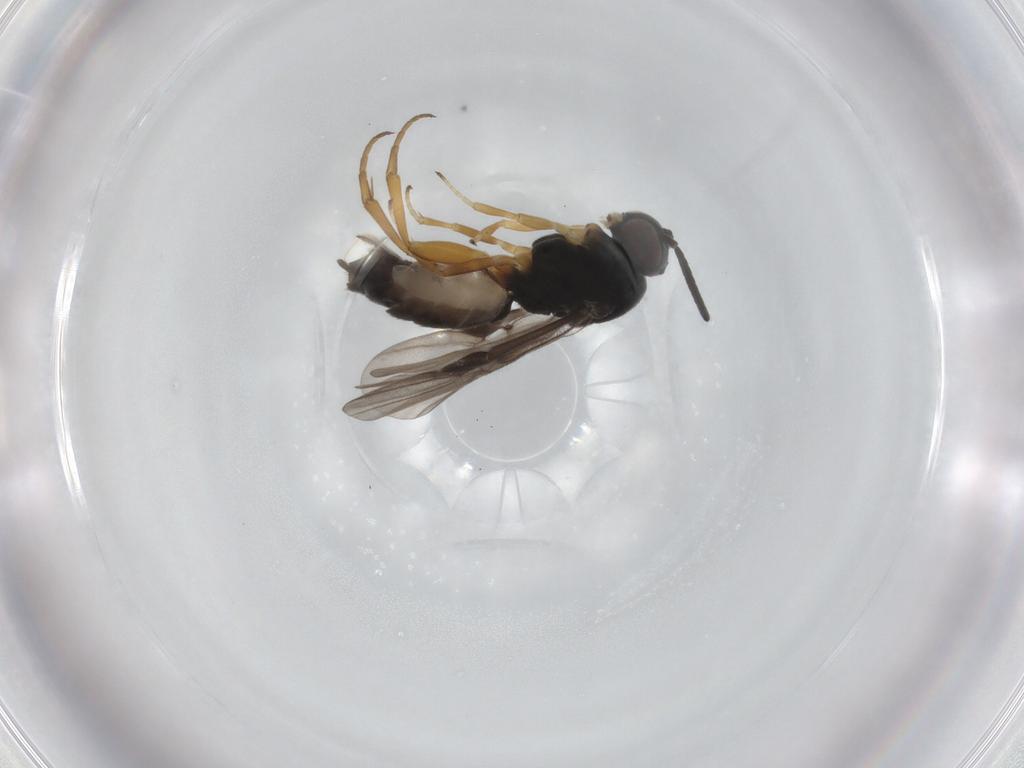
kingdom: Animalia
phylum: Arthropoda
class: Insecta
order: Hymenoptera
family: Braconidae
